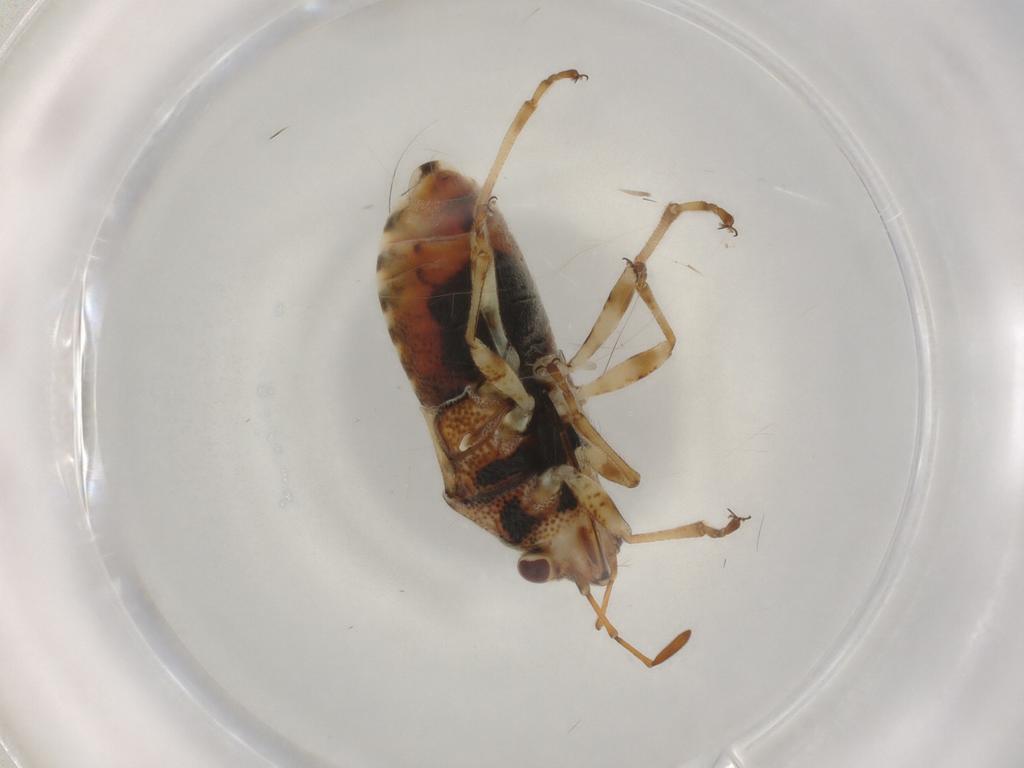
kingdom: Animalia
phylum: Arthropoda
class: Insecta
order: Hemiptera
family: Lygaeidae
